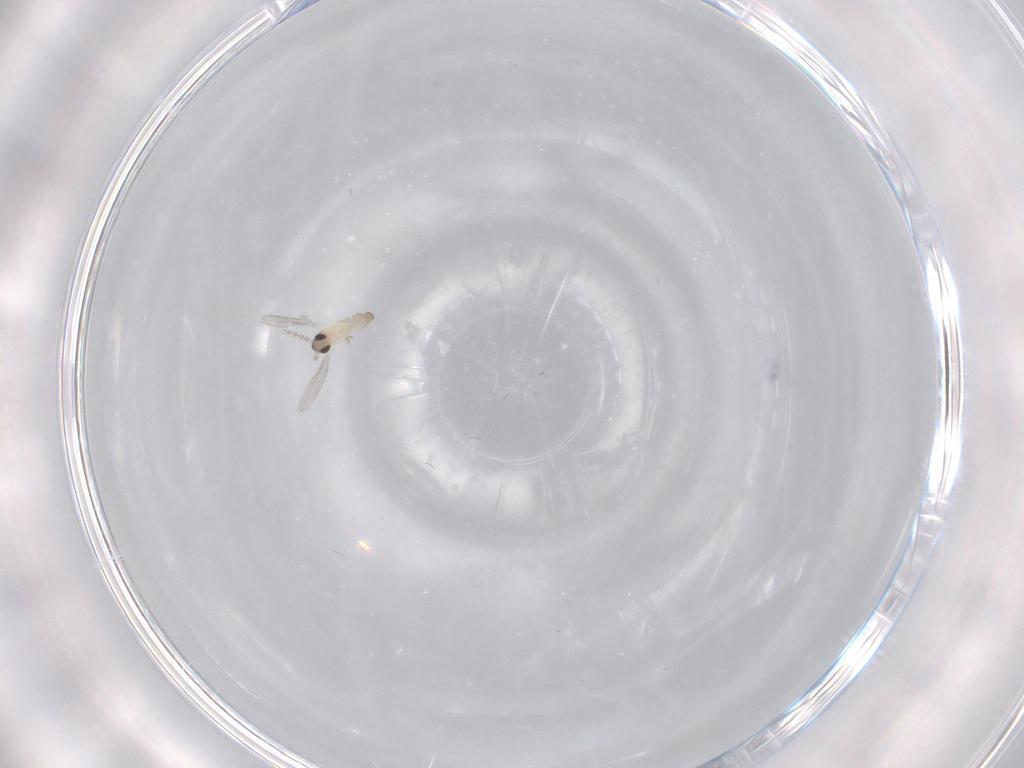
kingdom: Animalia
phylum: Arthropoda
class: Insecta
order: Diptera
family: Cecidomyiidae
